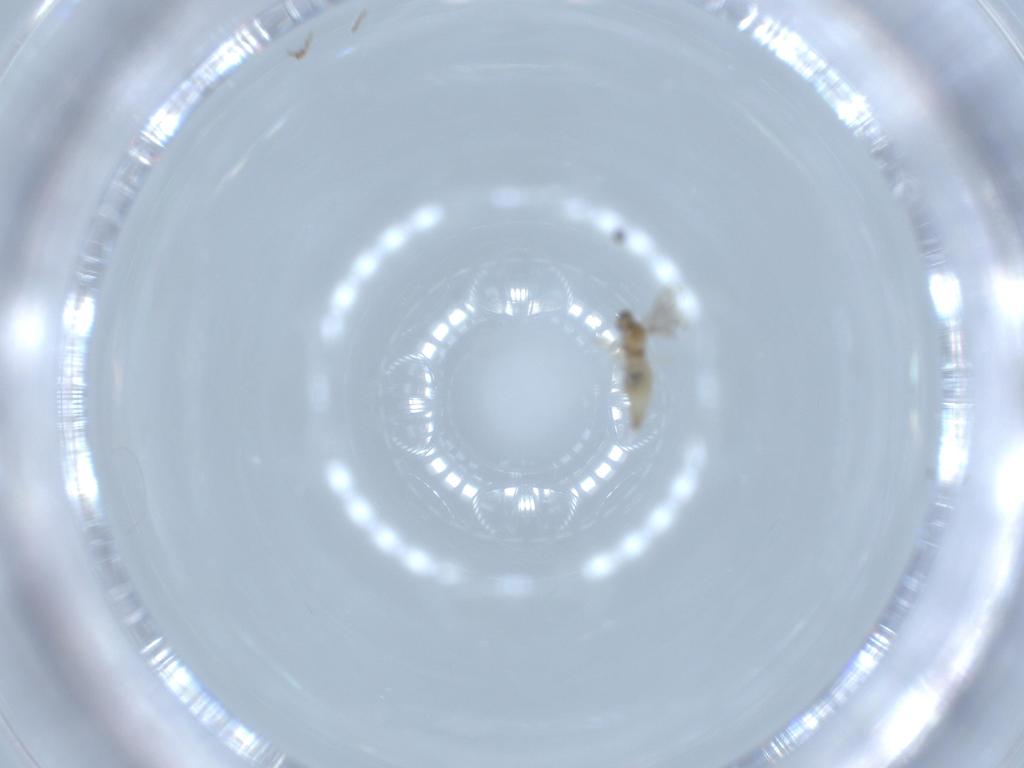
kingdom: Animalia
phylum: Arthropoda
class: Insecta
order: Diptera
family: Cecidomyiidae
